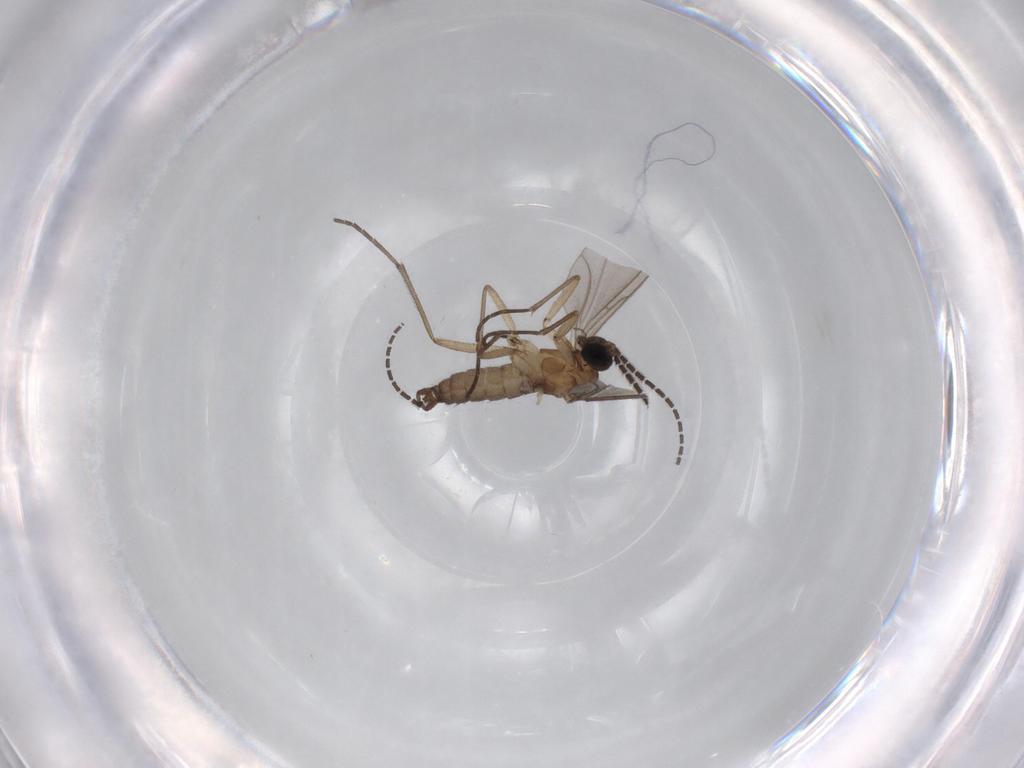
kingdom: Animalia
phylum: Arthropoda
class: Insecta
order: Diptera
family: Sciaridae
